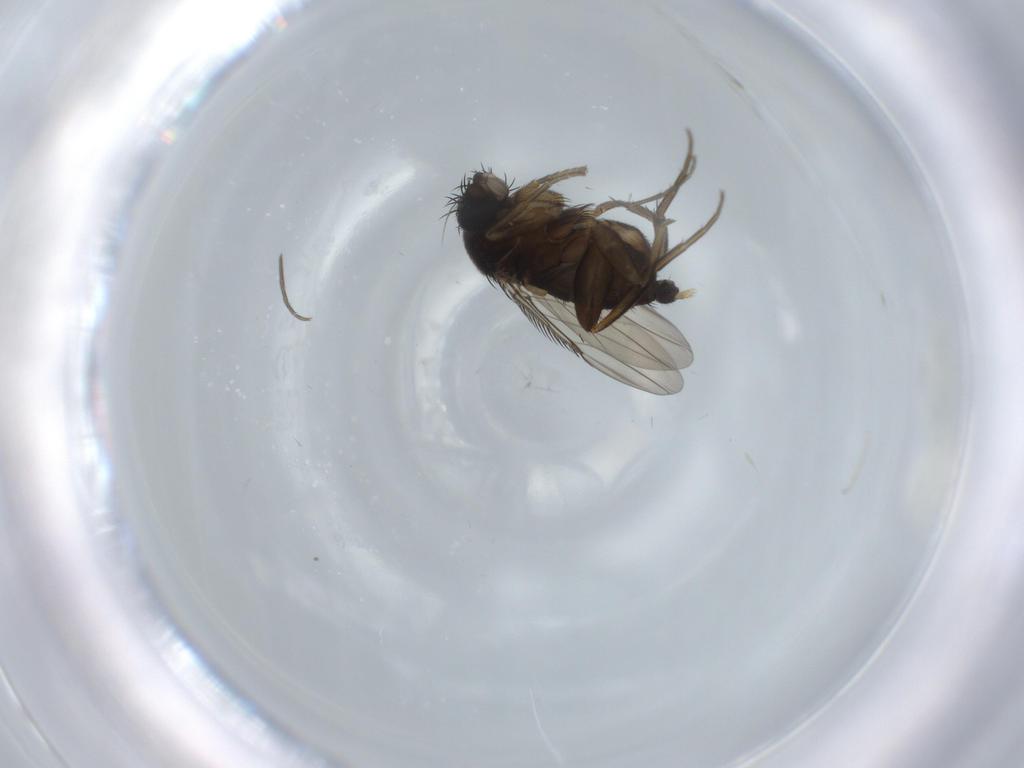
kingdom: Animalia
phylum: Arthropoda
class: Insecta
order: Diptera
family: Phoridae
